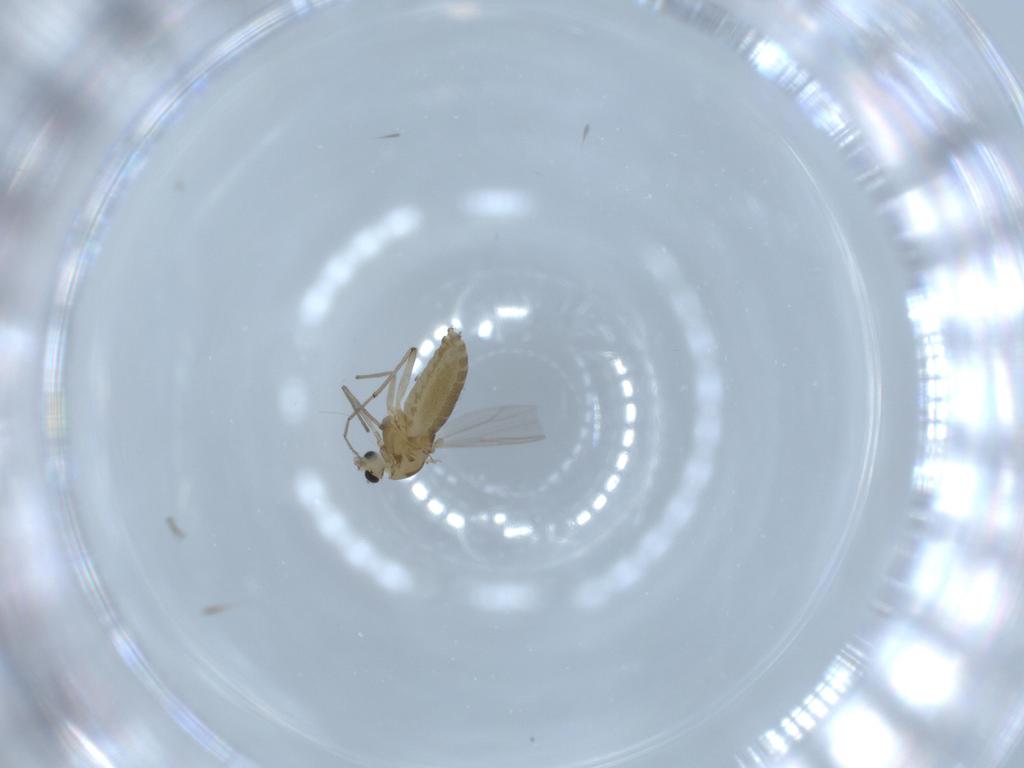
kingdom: Animalia
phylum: Arthropoda
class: Insecta
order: Diptera
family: Chironomidae
